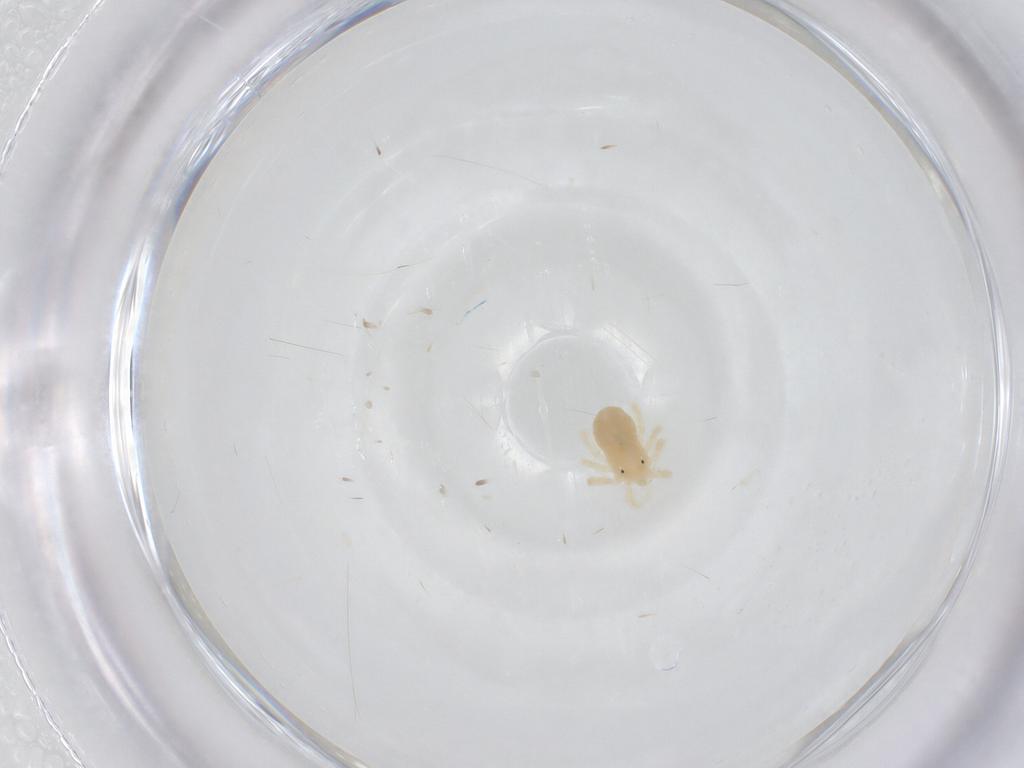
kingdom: Animalia
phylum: Arthropoda
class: Arachnida
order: Trombidiformes
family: Anystidae
